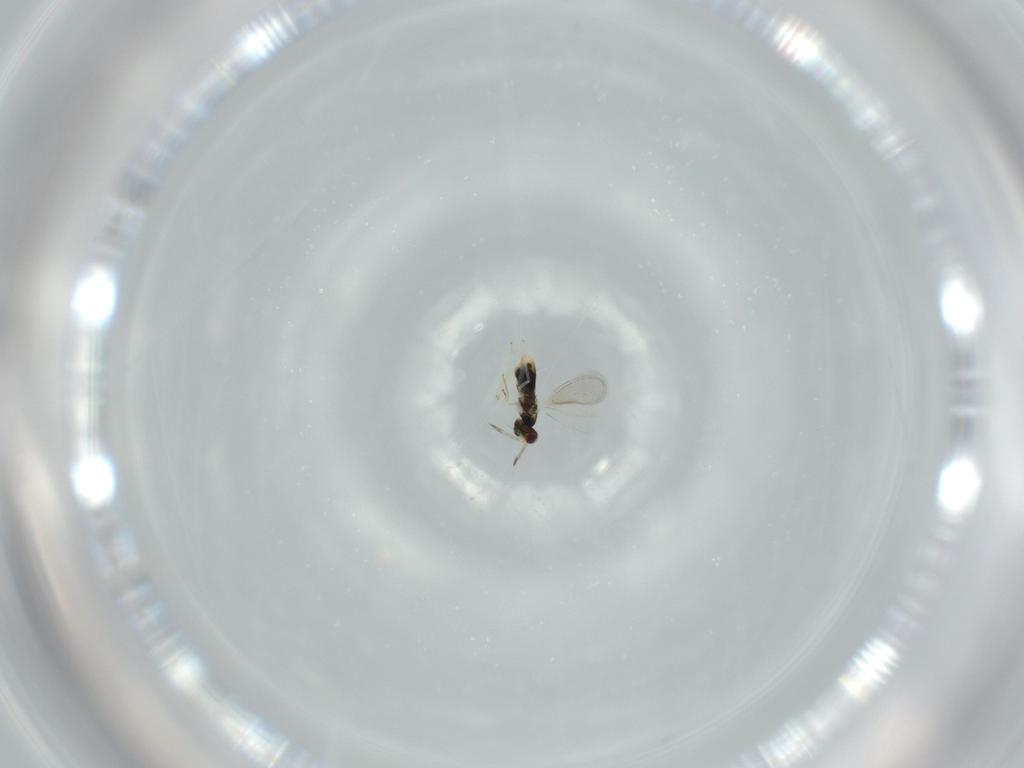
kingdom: Animalia
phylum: Arthropoda
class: Insecta
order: Hymenoptera
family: Aphelinidae
